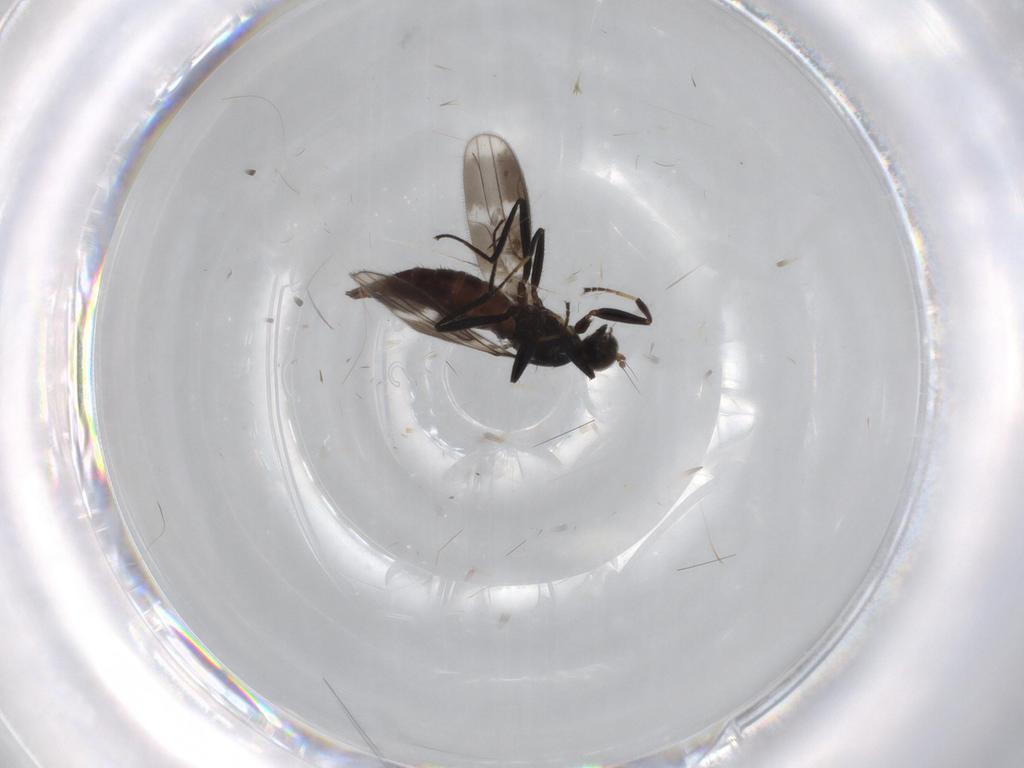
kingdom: Animalia
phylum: Arthropoda
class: Insecta
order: Diptera
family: Hybotidae
